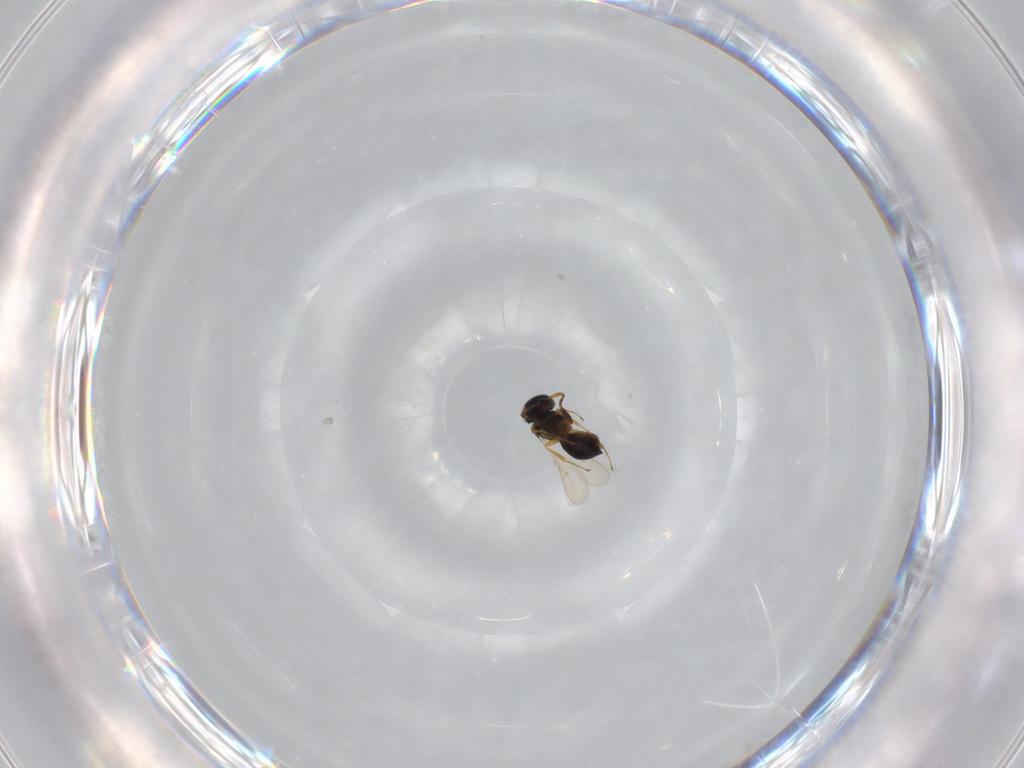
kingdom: Animalia
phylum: Arthropoda
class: Insecta
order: Hymenoptera
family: Scelionidae
